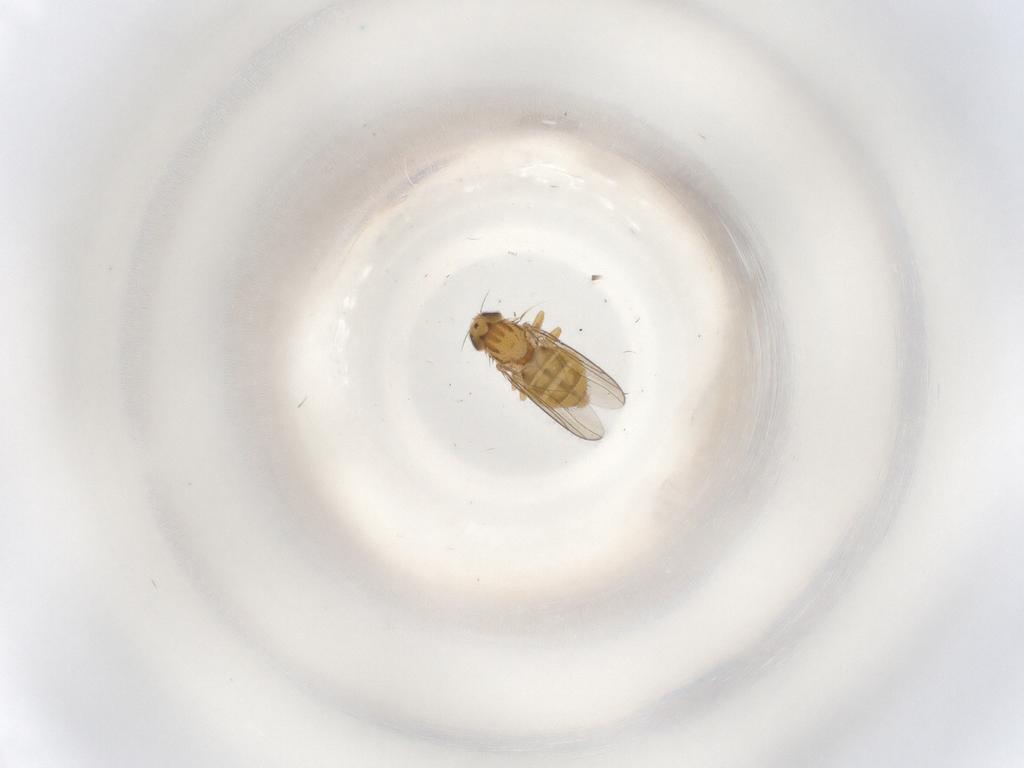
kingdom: Animalia
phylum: Arthropoda
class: Insecta
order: Diptera
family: Chloropidae
